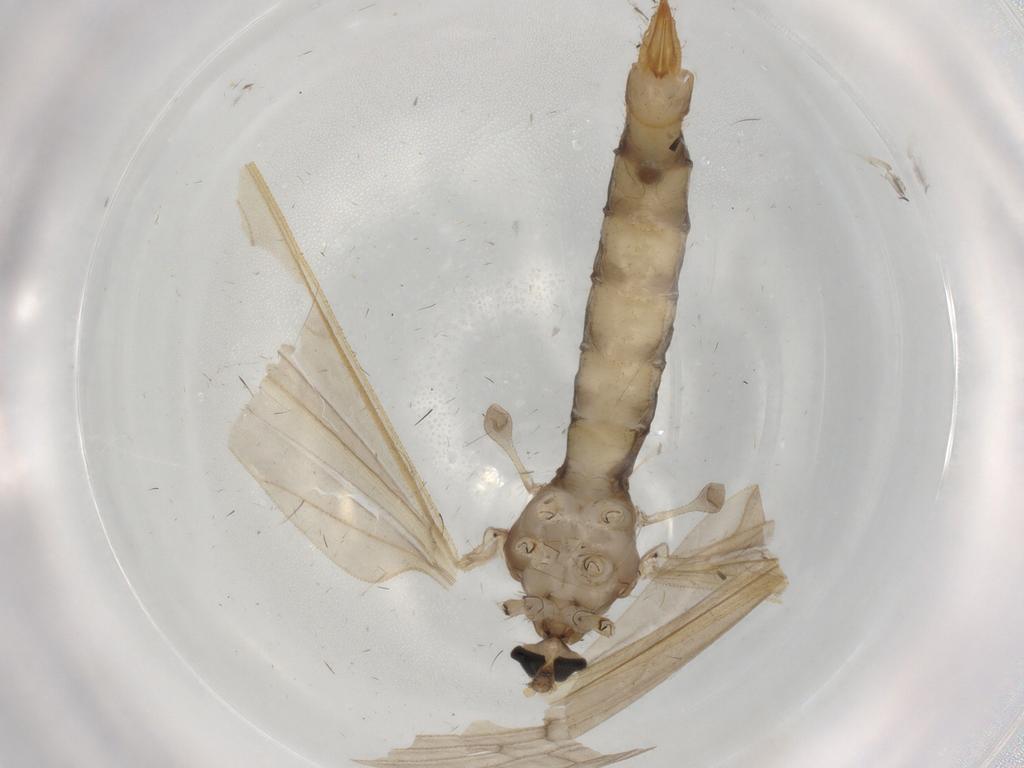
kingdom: Animalia
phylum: Arthropoda
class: Insecta
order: Diptera
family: Limoniidae
